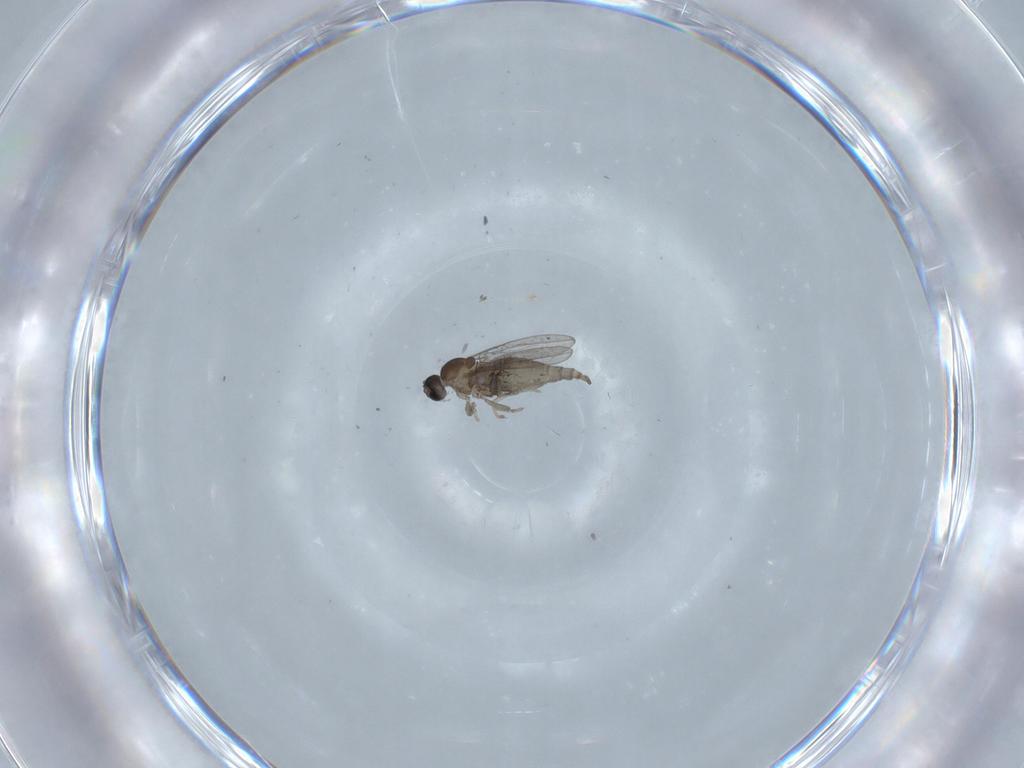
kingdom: Animalia
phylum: Arthropoda
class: Insecta
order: Diptera
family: Cecidomyiidae
